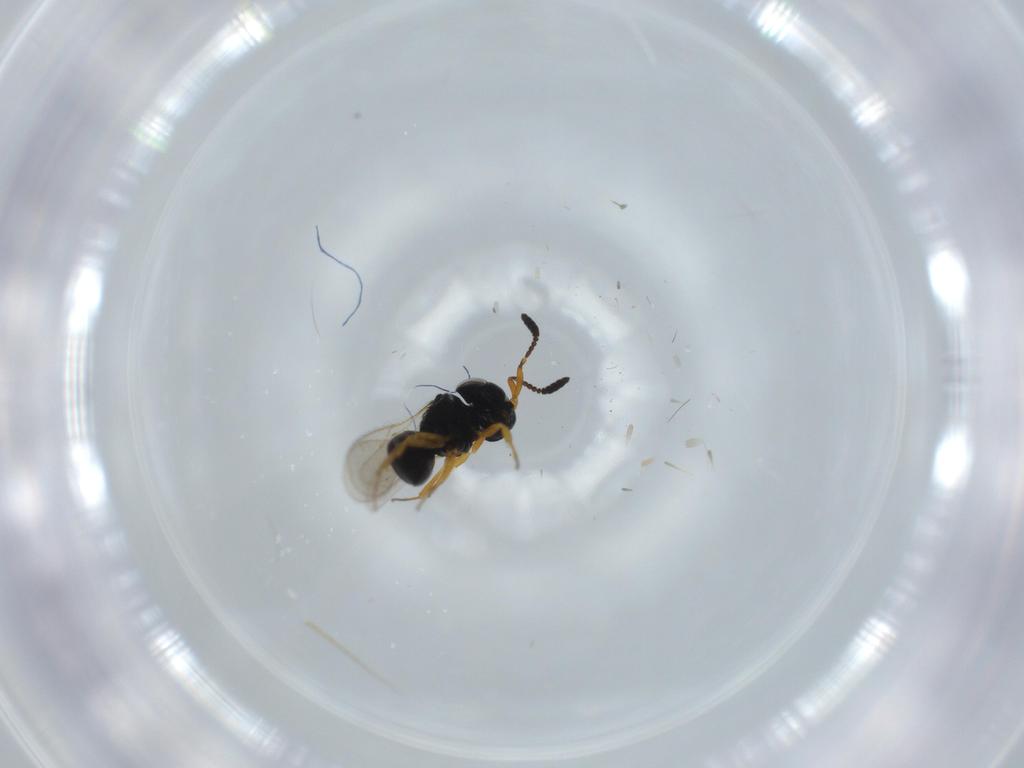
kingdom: Animalia
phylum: Arthropoda
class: Insecta
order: Hymenoptera
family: Scelionidae
